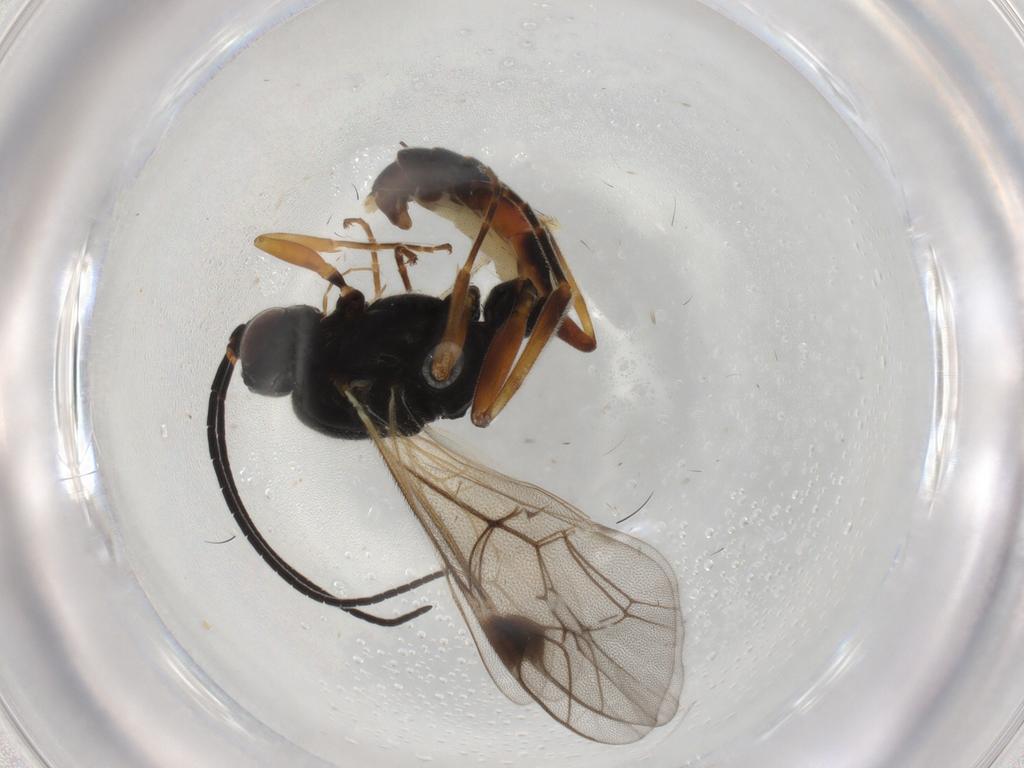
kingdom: Animalia
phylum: Arthropoda
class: Insecta
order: Hymenoptera
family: Ichneumonidae
